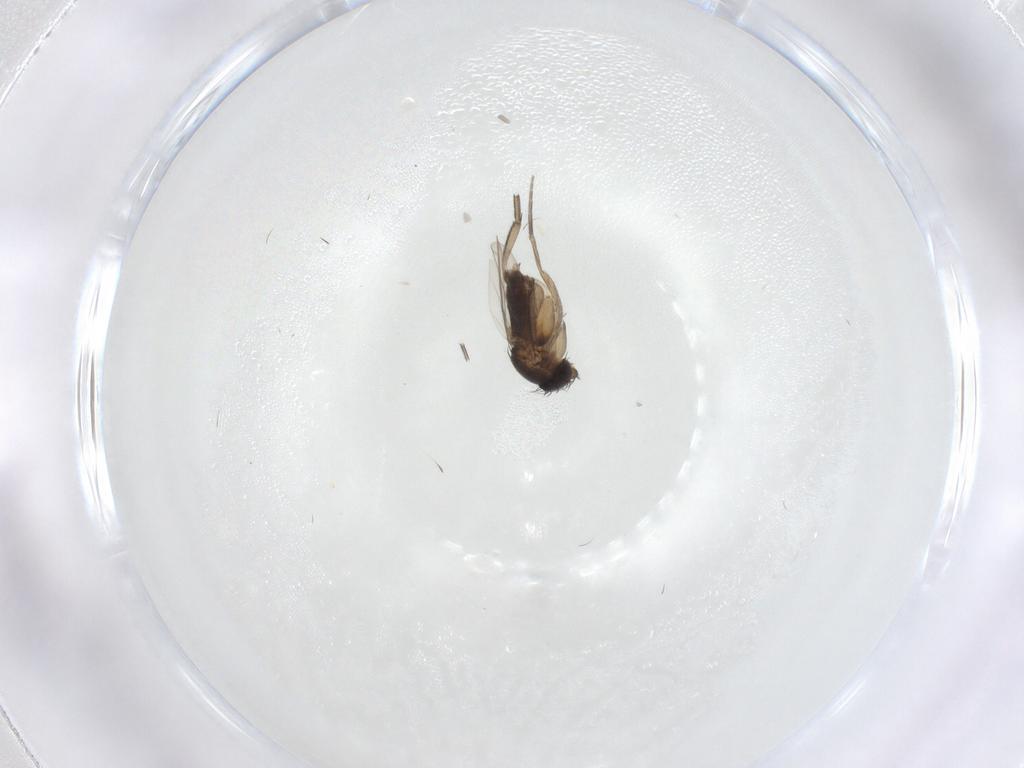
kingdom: Animalia
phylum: Arthropoda
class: Insecta
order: Diptera
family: Phoridae
